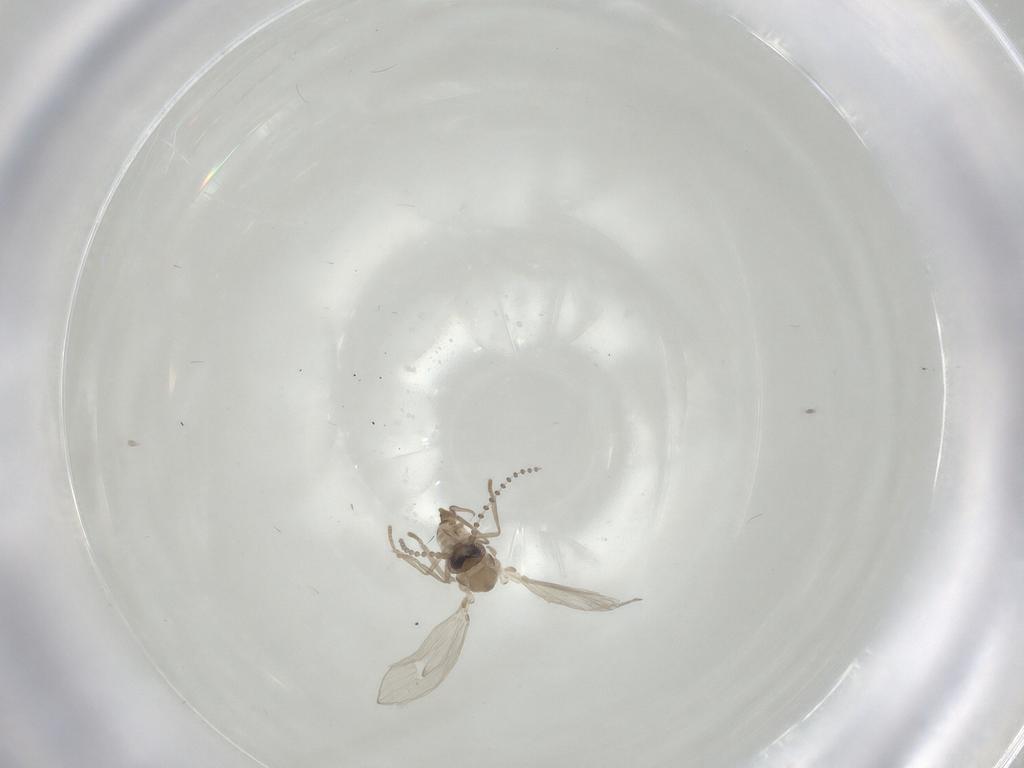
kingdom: Animalia
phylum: Arthropoda
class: Insecta
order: Diptera
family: Psychodidae
